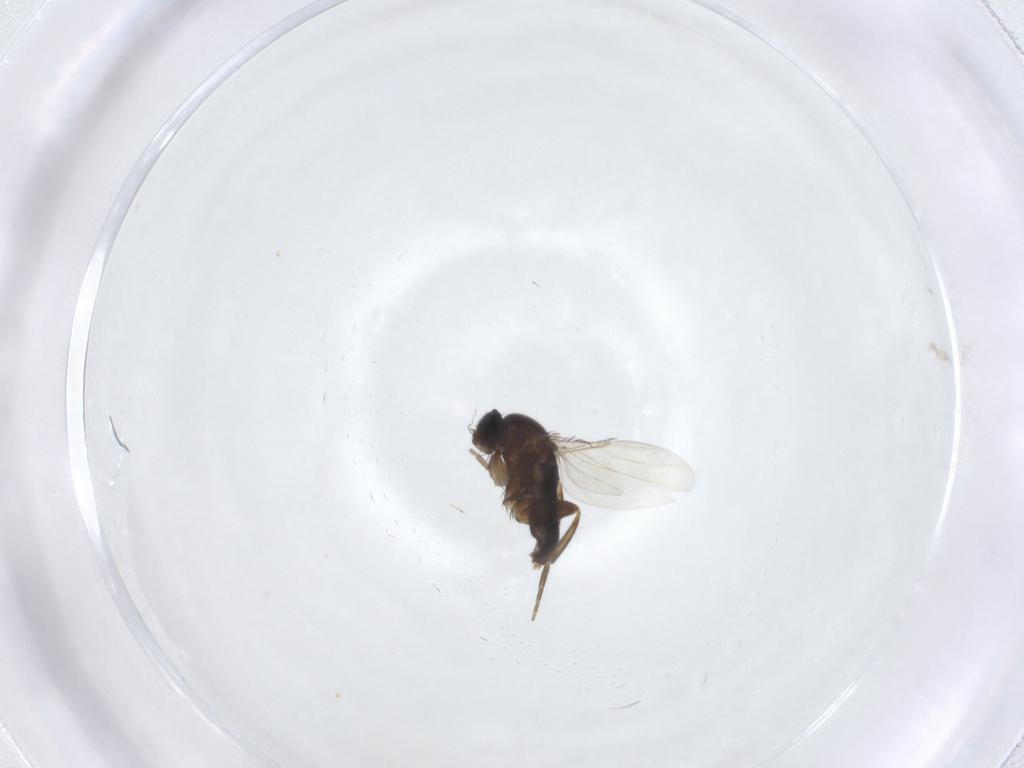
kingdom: Animalia
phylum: Arthropoda
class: Insecta
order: Diptera
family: Phoridae
